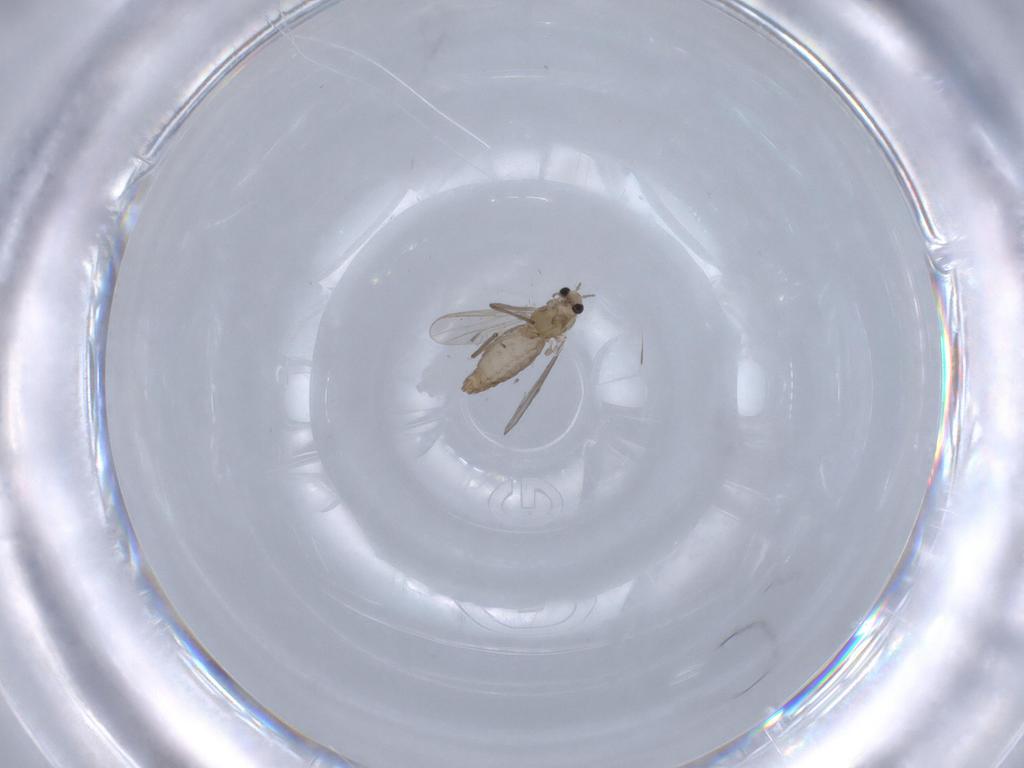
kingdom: Animalia
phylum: Arthropoda
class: Insecta
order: Diptera
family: Chironomidae
